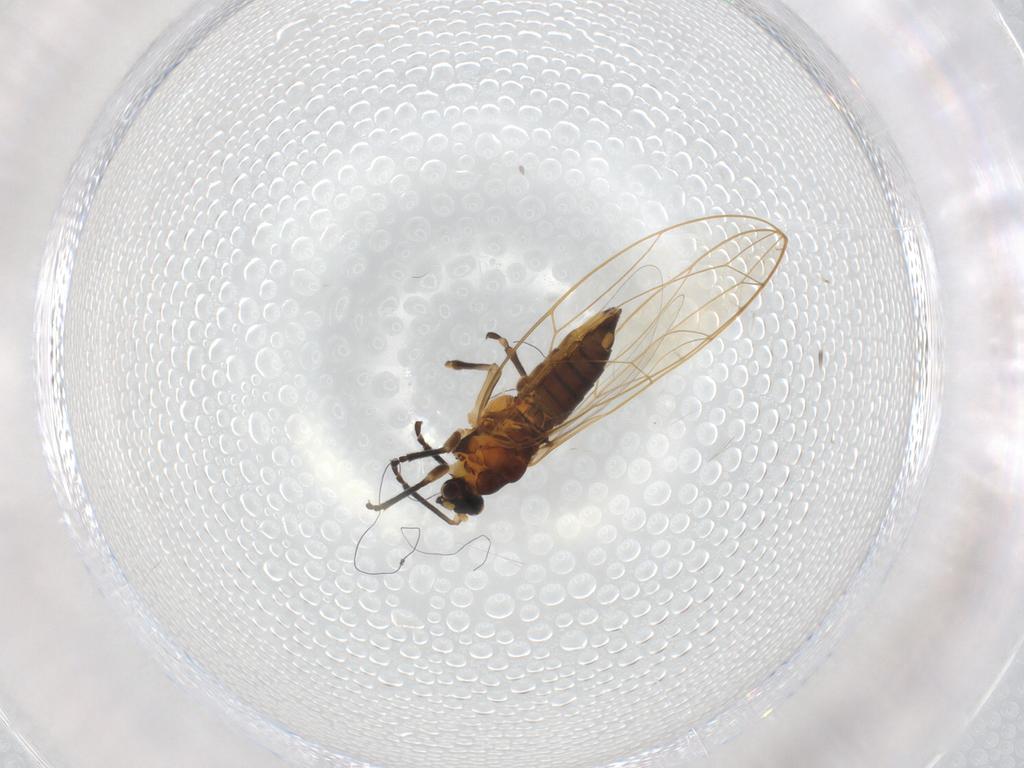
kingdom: Animalia
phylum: Arthropoda
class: Insecta
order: Hemiptera
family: Triozidae
